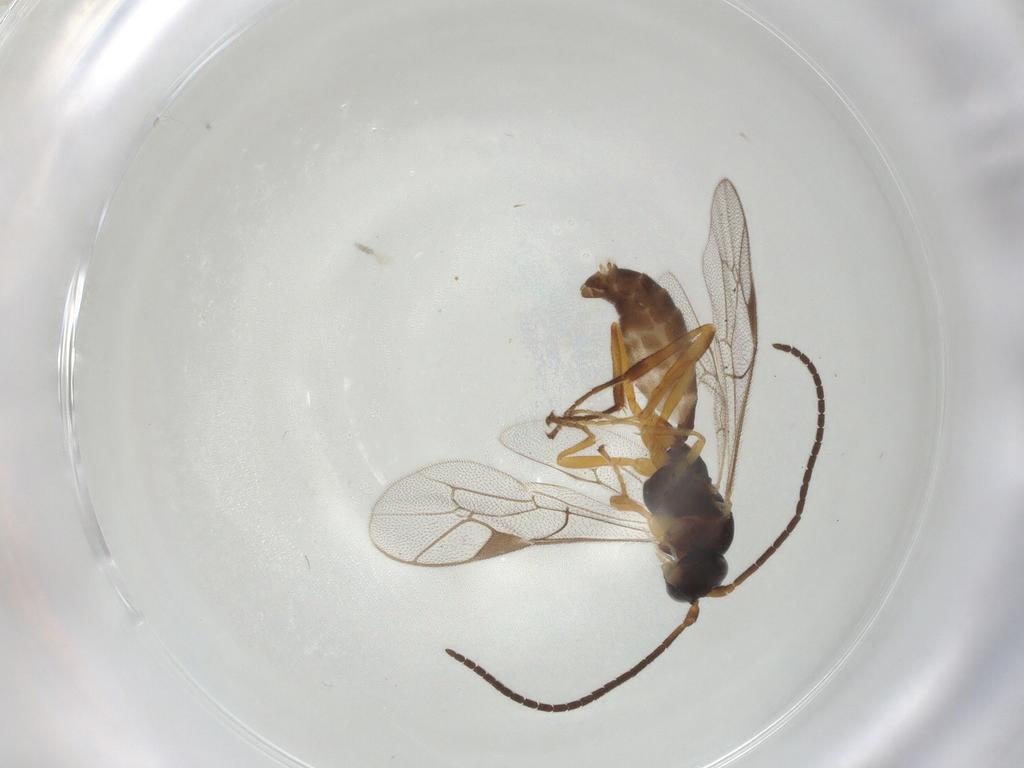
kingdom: Animalia
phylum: Arthropoda
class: Insecta
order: Hymenoptera
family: Ichneumonidae
